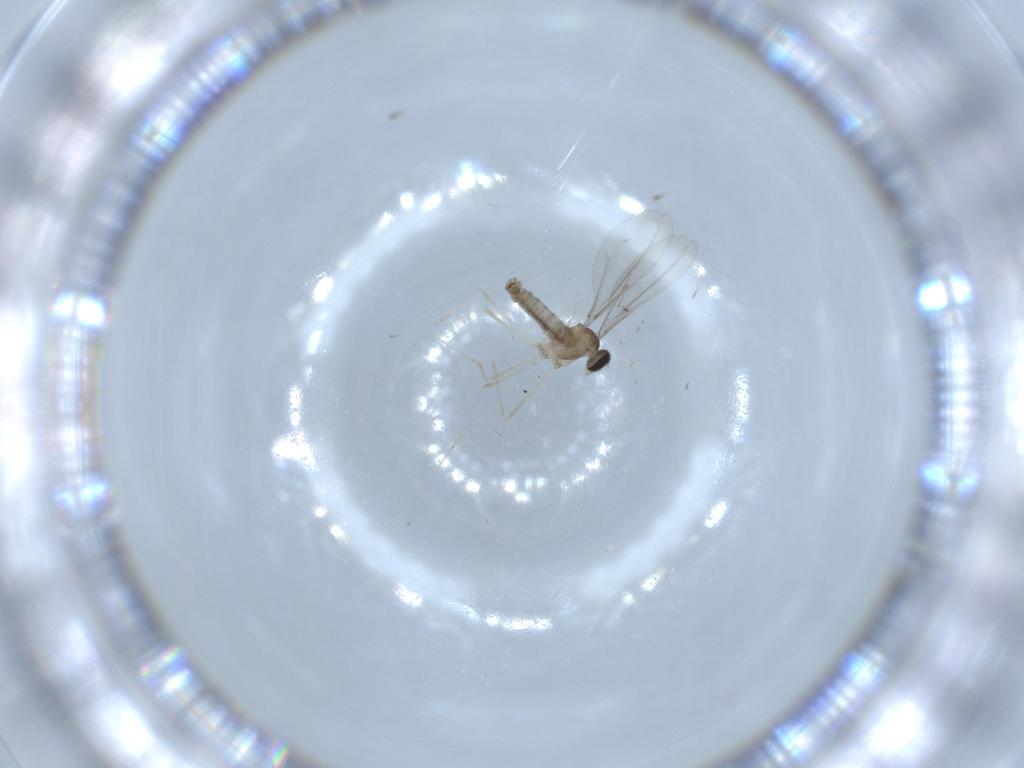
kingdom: Animalia
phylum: Arthropoda
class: Insecta
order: Diptera
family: Cecidomyiidae
